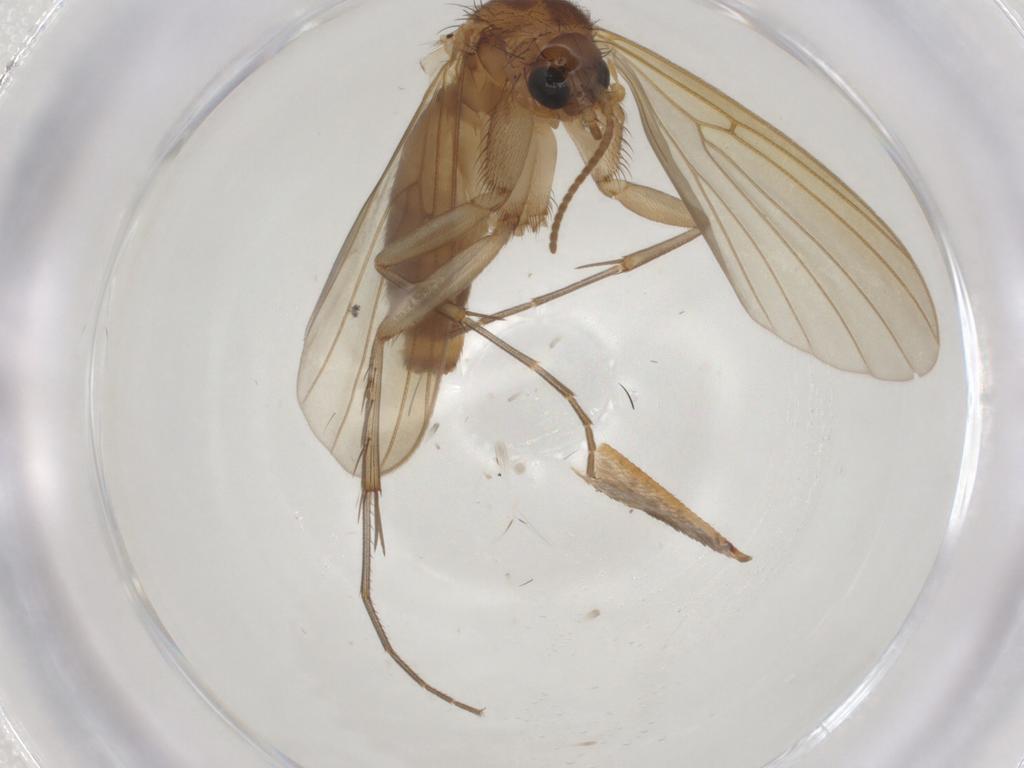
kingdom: Animalia
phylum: Arthropoda
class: Insecta
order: Diptera
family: Mycetophilidae
